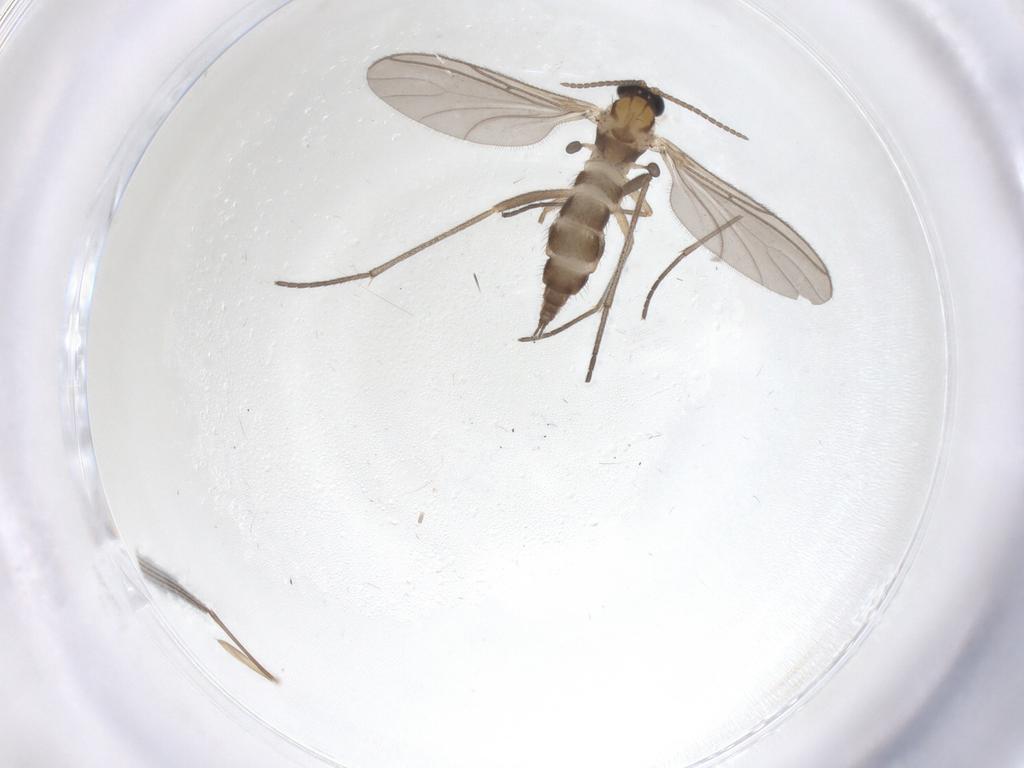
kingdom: Animalia
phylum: Arthropoda
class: Insecta
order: Diptera
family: Sciaridae
